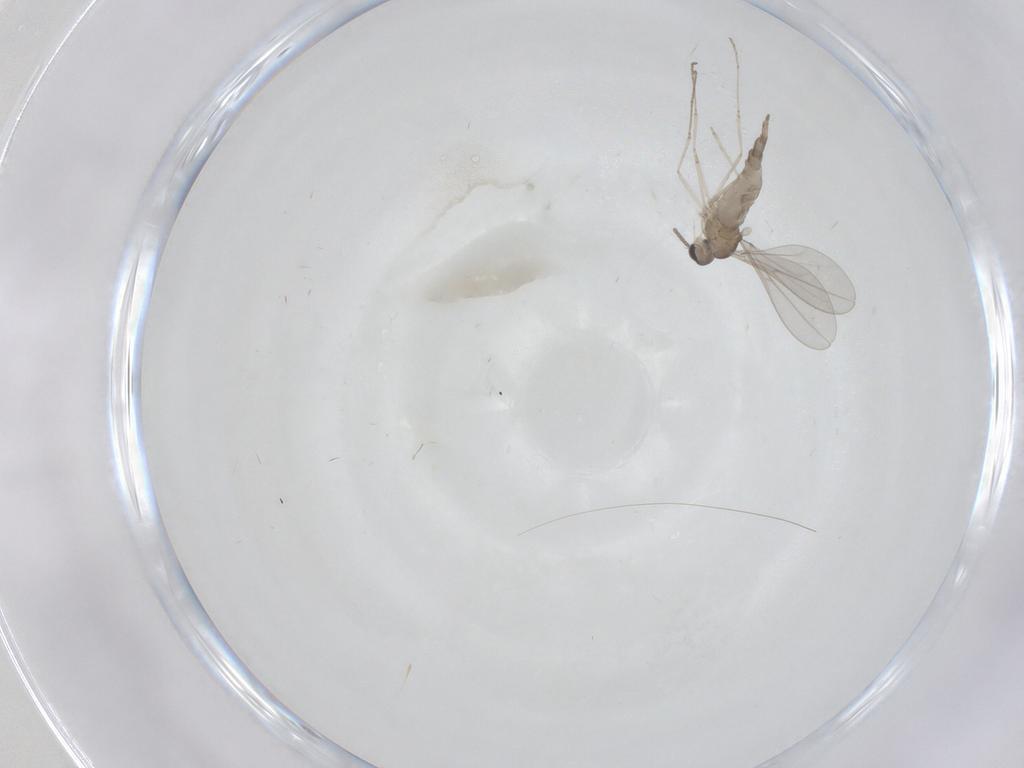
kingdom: Animalia
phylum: Arthropoda
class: Insecta
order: Diptera
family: Cecidomyiidae
